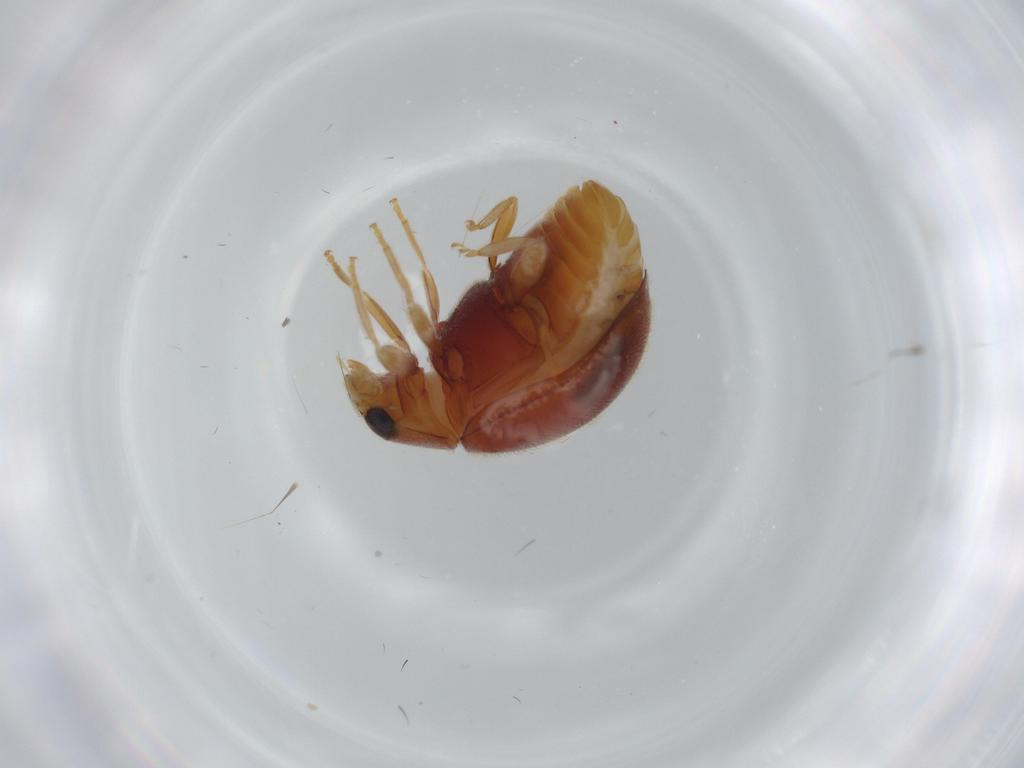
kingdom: Animalia
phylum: Arthropoda
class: Insecta
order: Coleoptera
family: Coccinellidae
